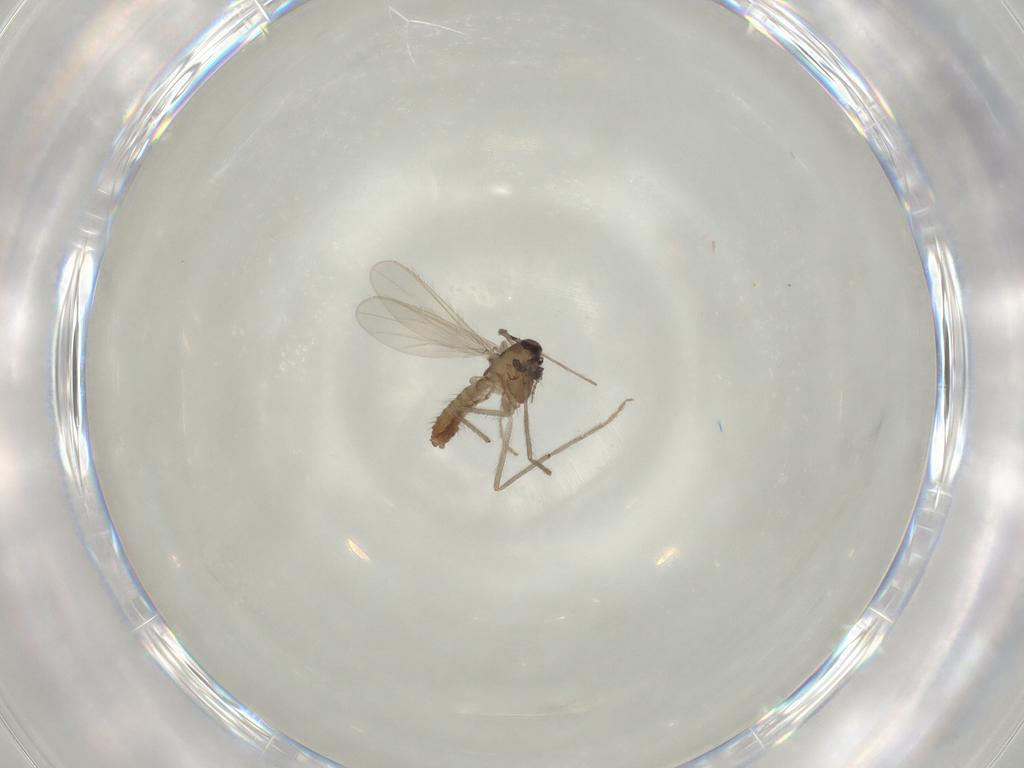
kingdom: Animalia
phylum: Arthropoda
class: Insecta
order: Diptera
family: Chironomidae
